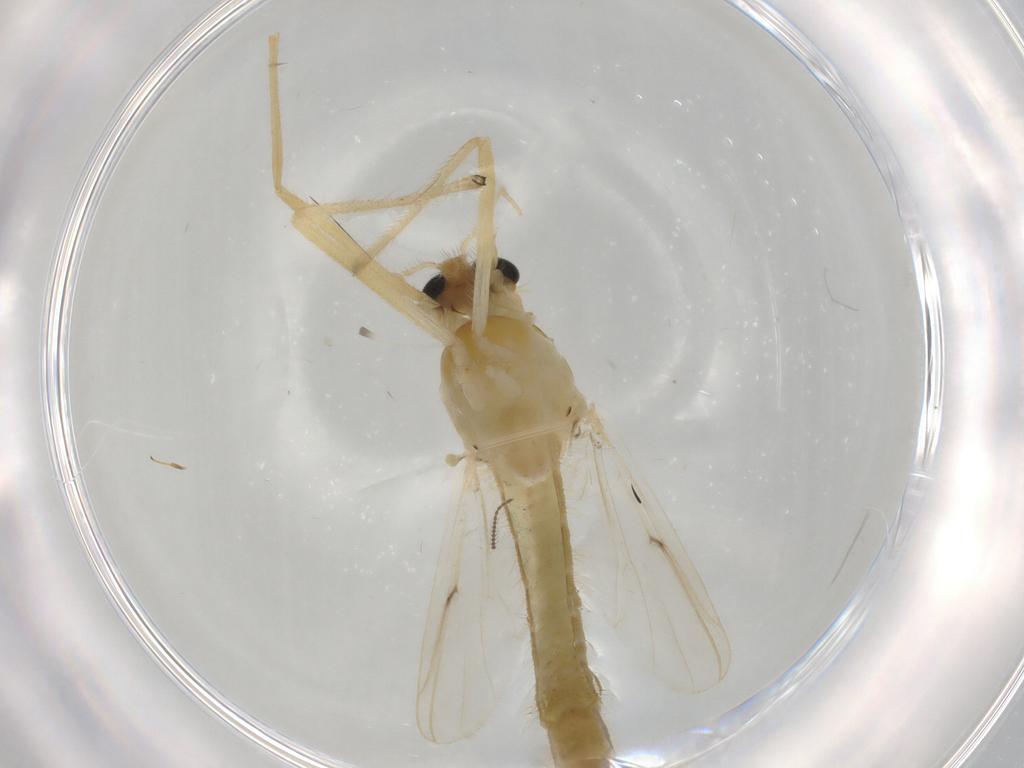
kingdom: Animalia
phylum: Arthropoda
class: Insecta
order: Diptera
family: Chironomidae
